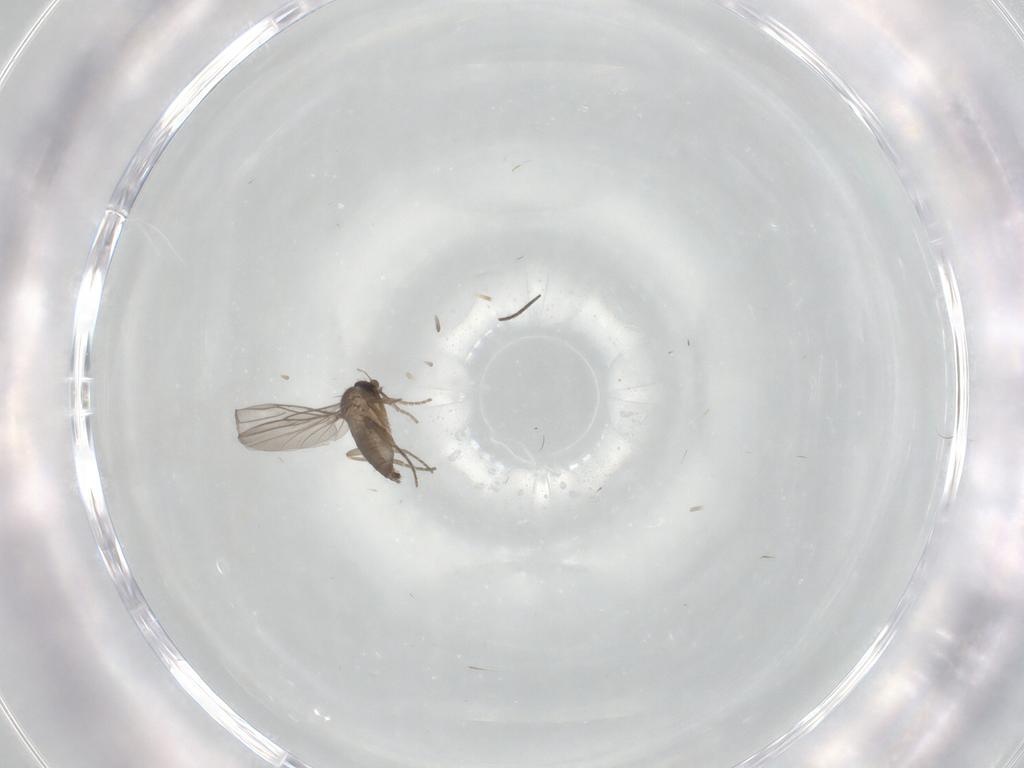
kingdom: Animalia
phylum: Arthropoda
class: Insecta
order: Diptera
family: Cecidomyiidae
